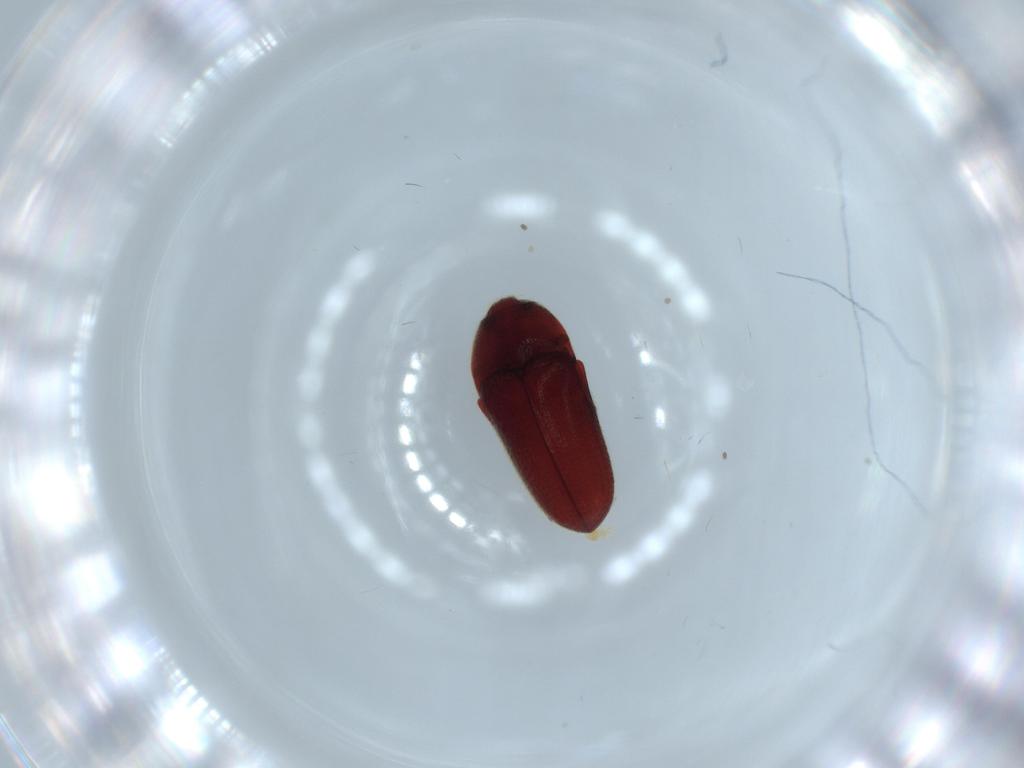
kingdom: Animalia
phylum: Arthropoda
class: Insecta
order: Coleoptera
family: Throscidae
